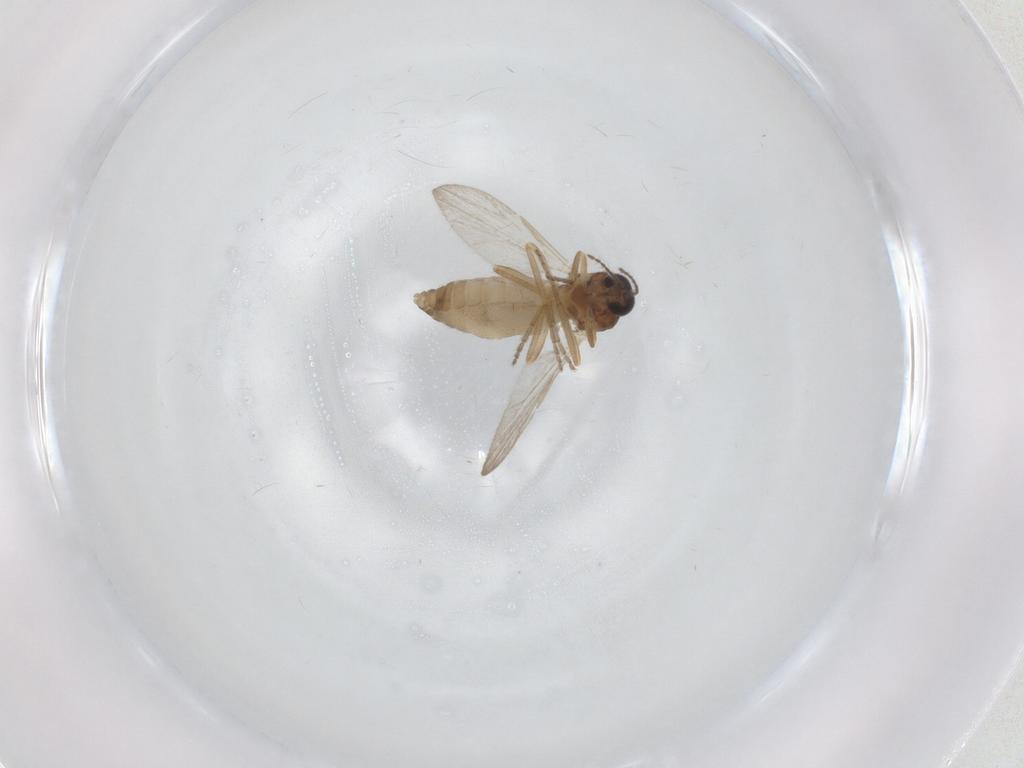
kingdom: Animalia
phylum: Arthropoda
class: Insecta
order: Diptera
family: Ceratopogonidae
